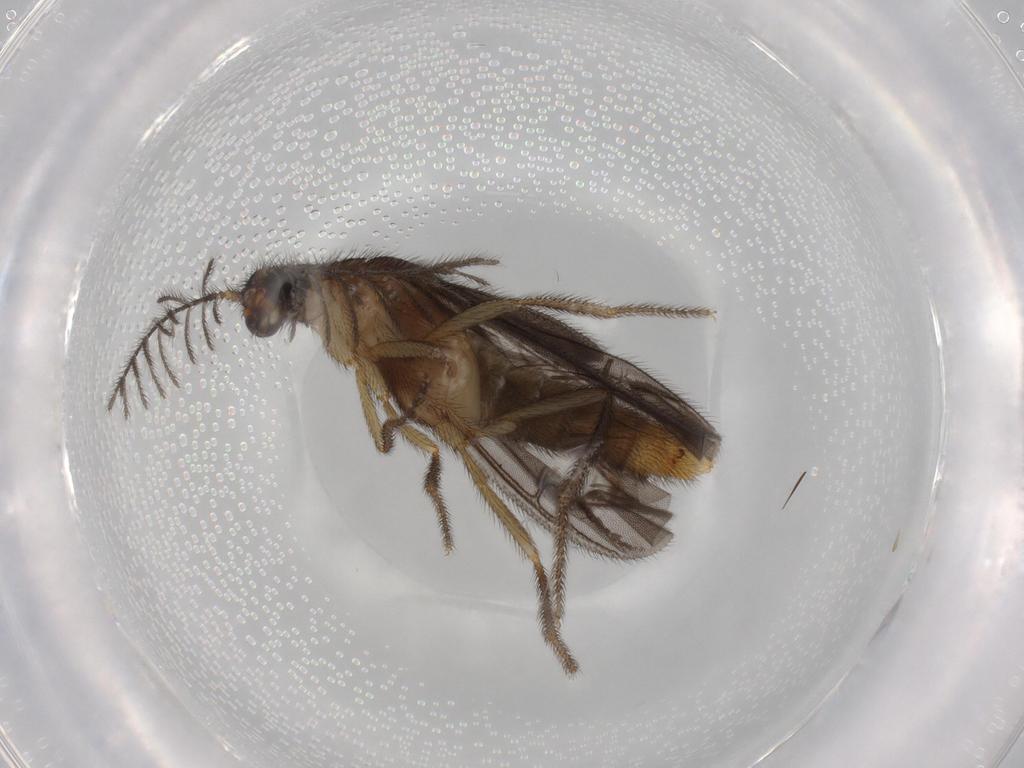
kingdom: Animalia
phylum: Arthropoda
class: Insecta
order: Coleoptera
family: Phengodidae
